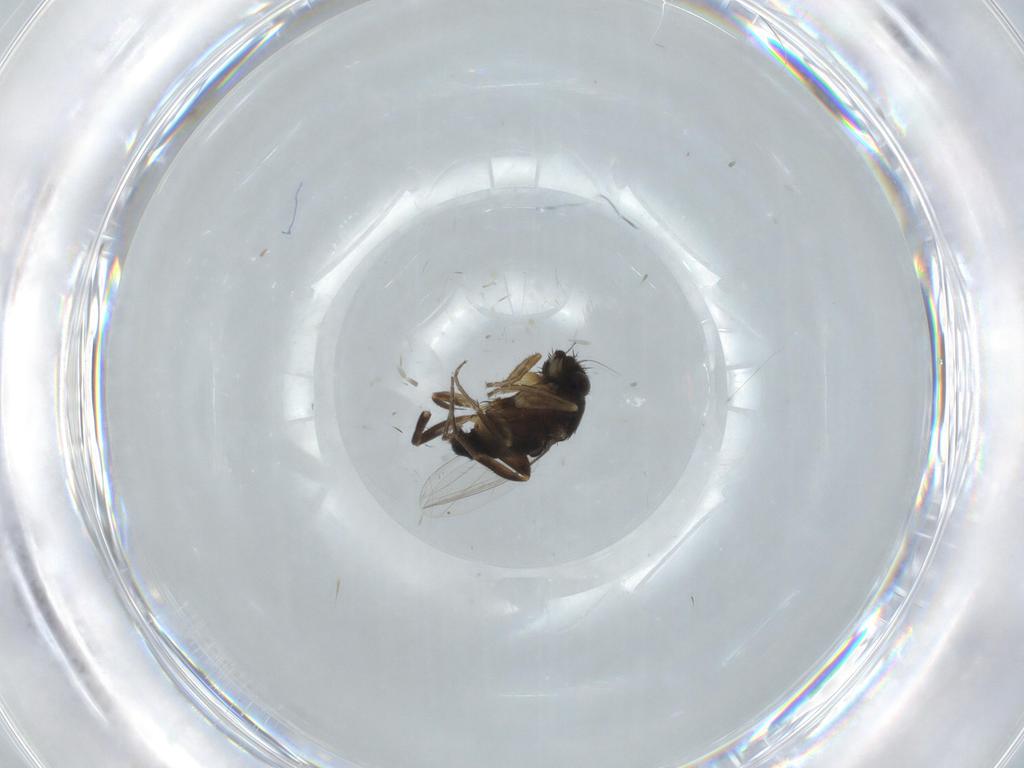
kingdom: Animalia
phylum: Arthropoda
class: Insecta
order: Diptera
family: Phoridae
